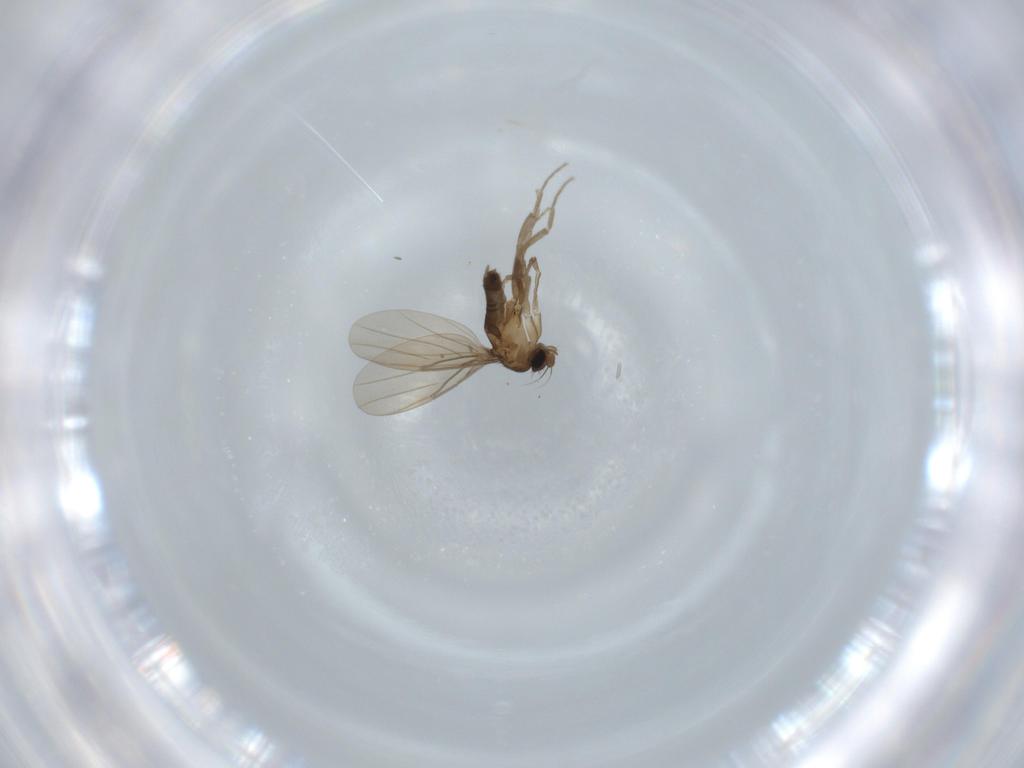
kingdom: Animalia
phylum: Arthropoda
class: Insecta
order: Diptera
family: Phoridae
